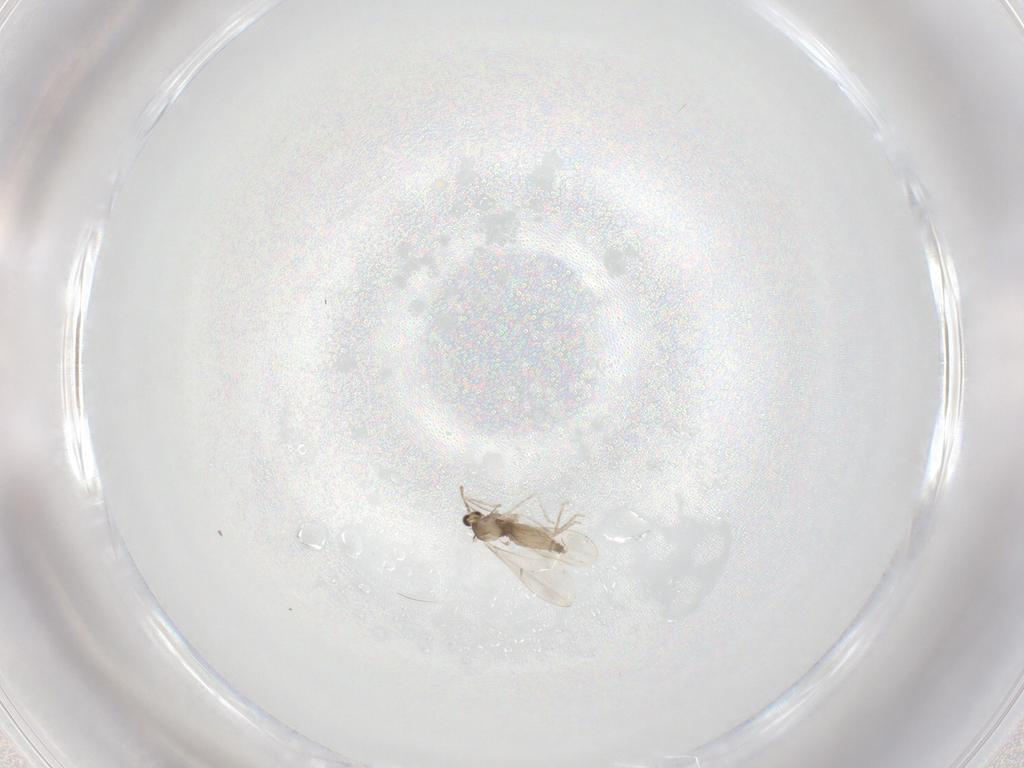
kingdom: Animalia
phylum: Arthropoda
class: Insecta
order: Diptera
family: Cecidomyiidae
